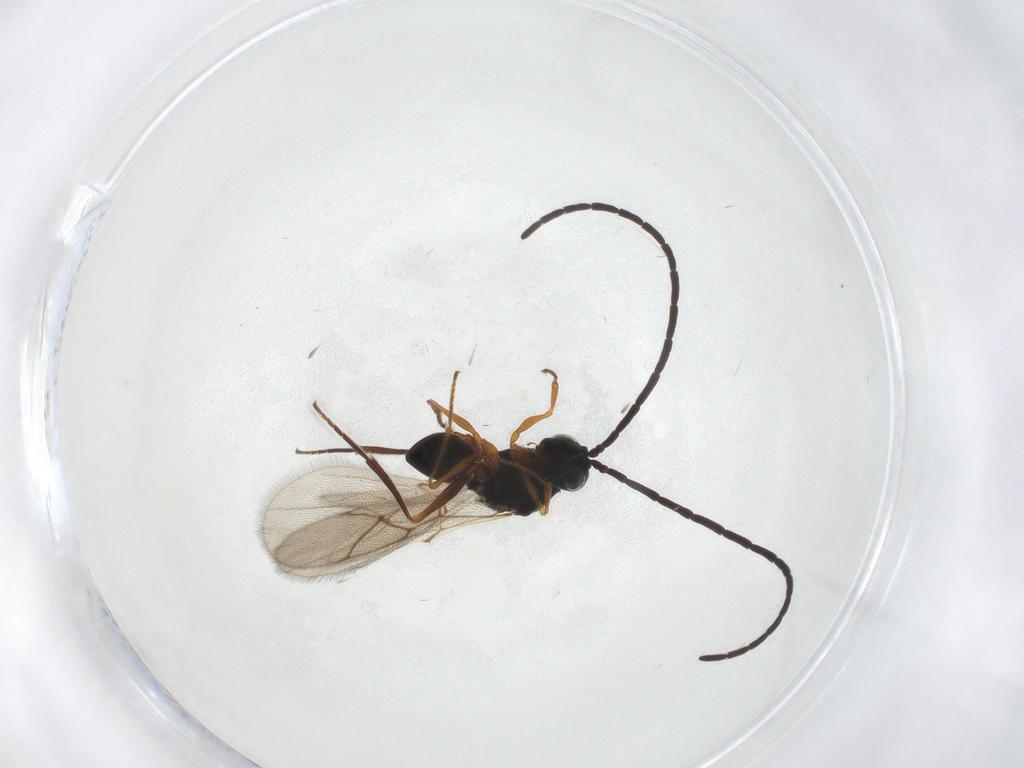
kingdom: Animalia
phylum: Arthropoda
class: Insecta
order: Hymenoptera
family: Figitidae
